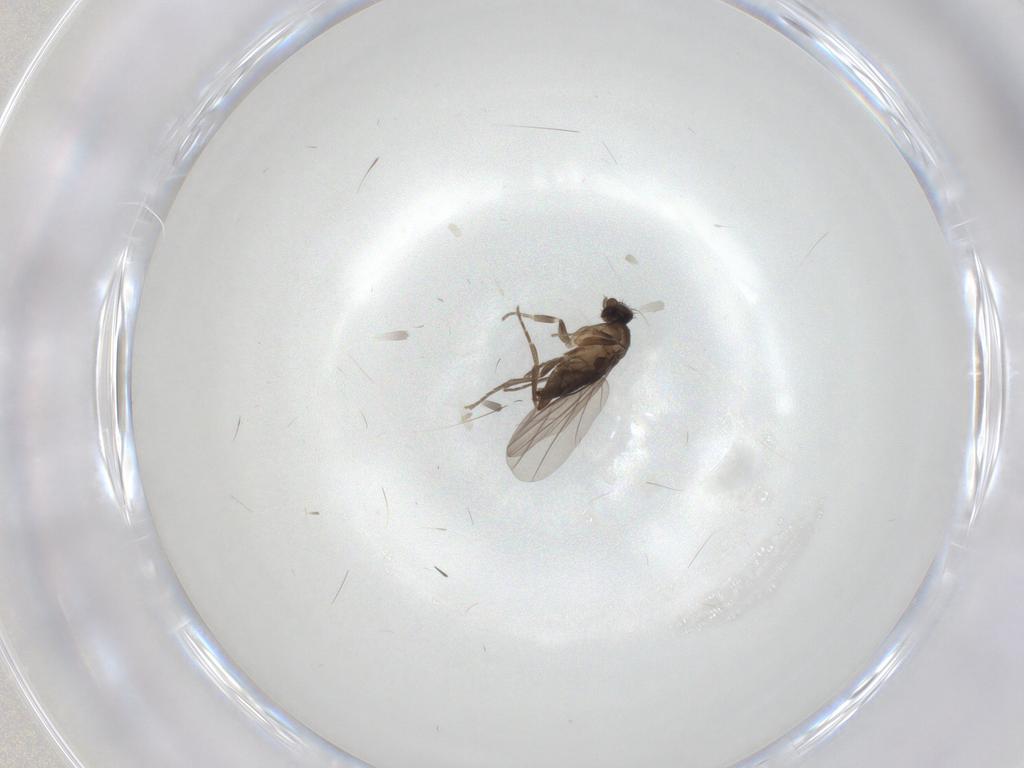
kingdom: Animalia
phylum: Arthropoda
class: Insecta
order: Diptera
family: Phoridae
